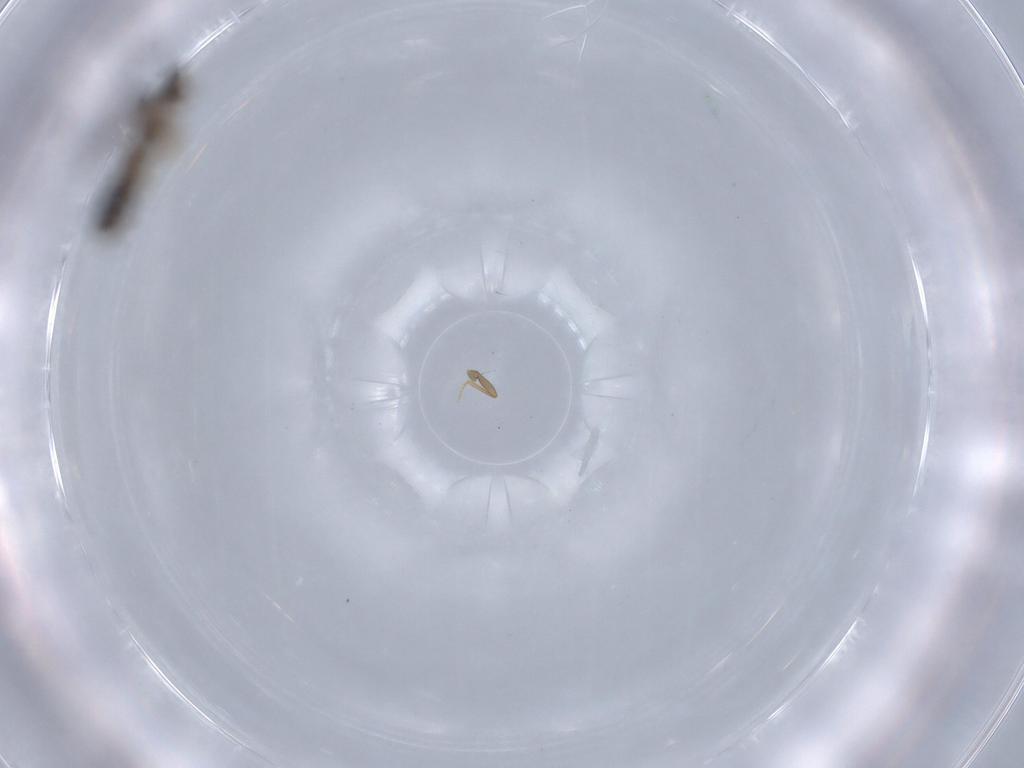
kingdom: Animalia
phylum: Arthropoda
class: Insecta
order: Coleoptera
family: Staphylinidae
